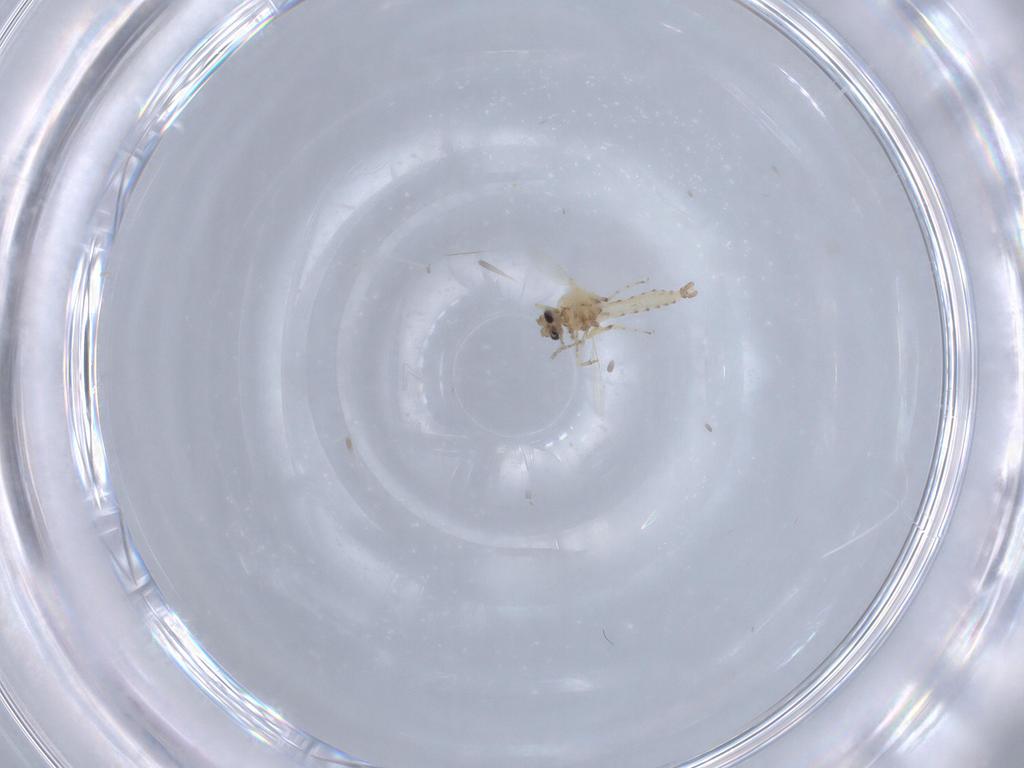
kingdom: Animalia
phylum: Arthropoda
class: Insecta
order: Diptera
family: Cecidomyiidae
